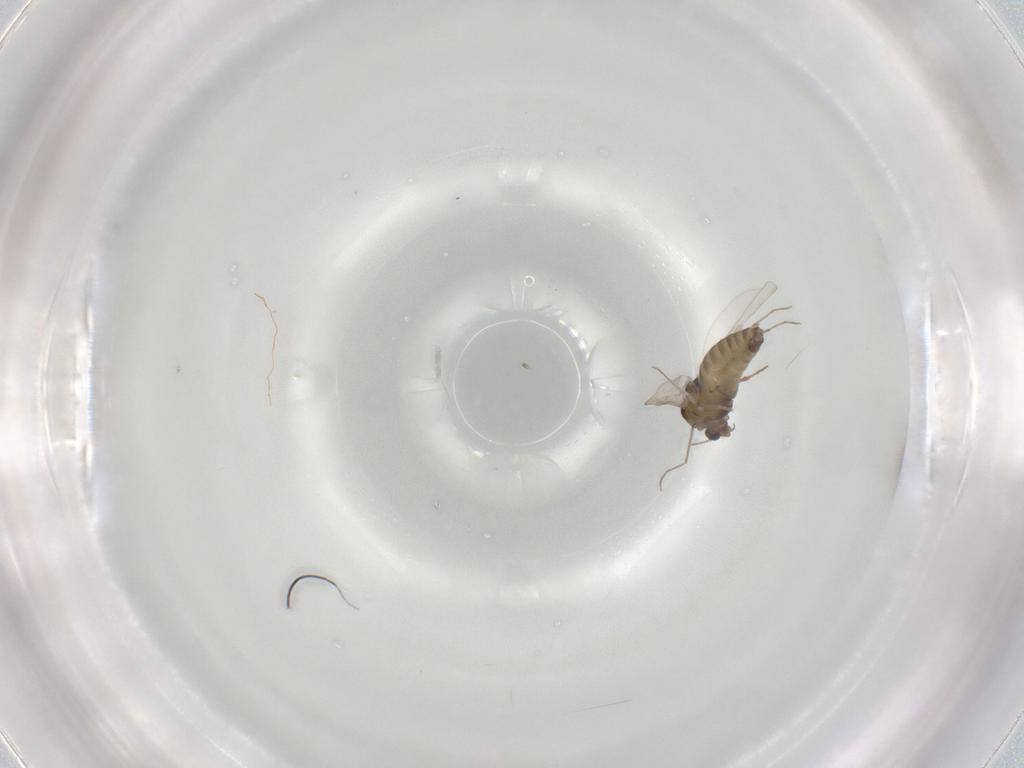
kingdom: Animalia
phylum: Arthropoda
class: Insecta
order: Diptera
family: Chironomidae
